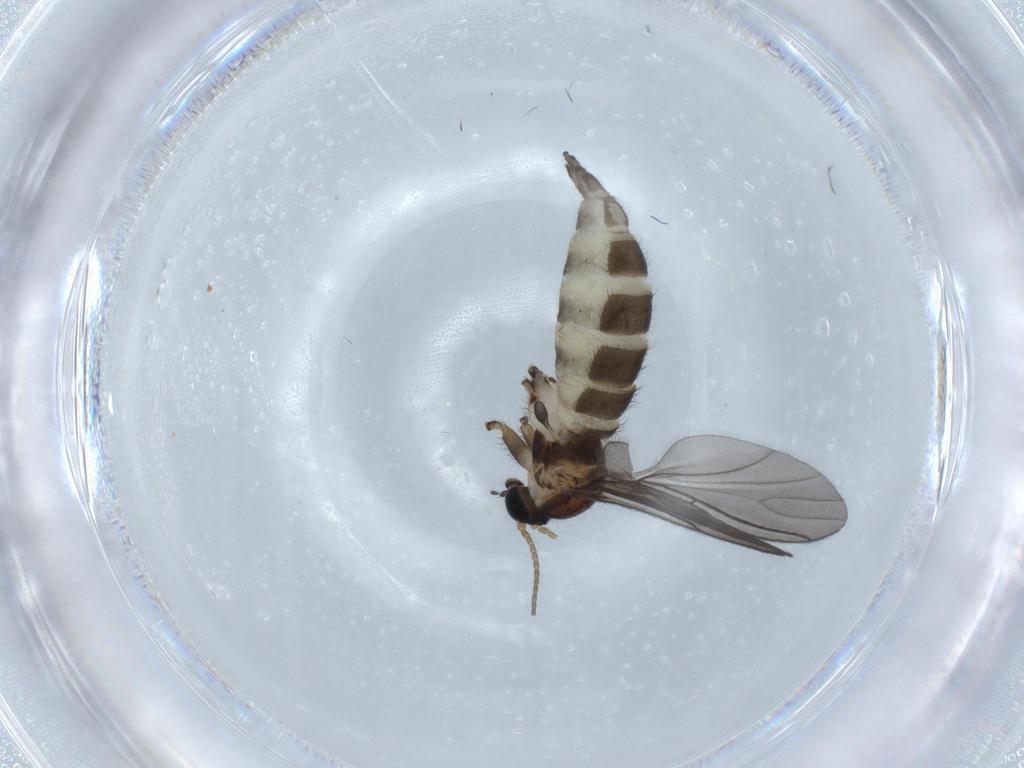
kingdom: Animalia
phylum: Arthropoda
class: Insecta
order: Diptera
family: Sciaridae
